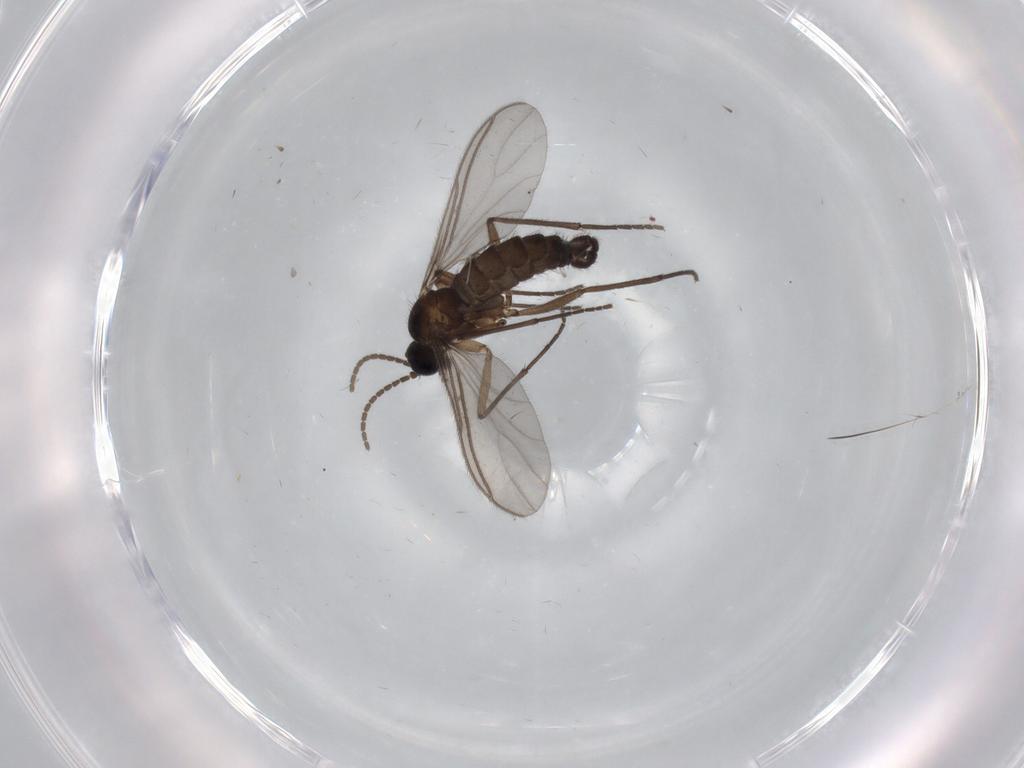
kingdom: Animalia
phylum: Arthropoda
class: Insecta
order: Diptera
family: Sciaridae
